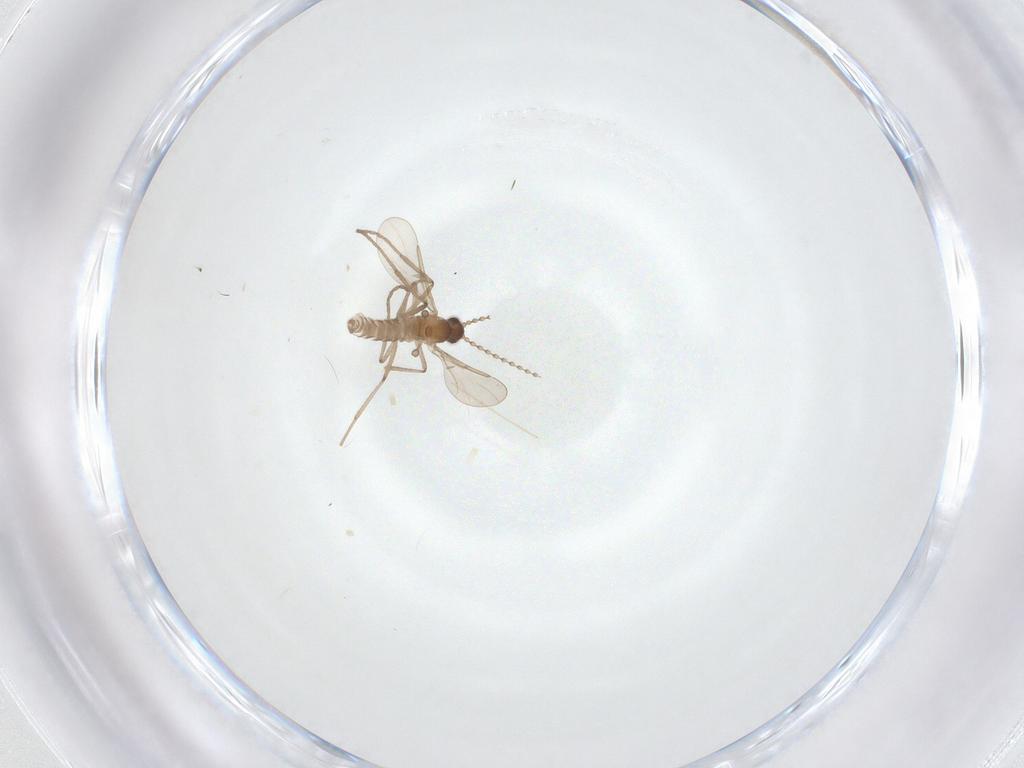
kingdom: Animalia
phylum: Arthropoda
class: Insecta
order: Diptera
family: Cecidomyiidae
